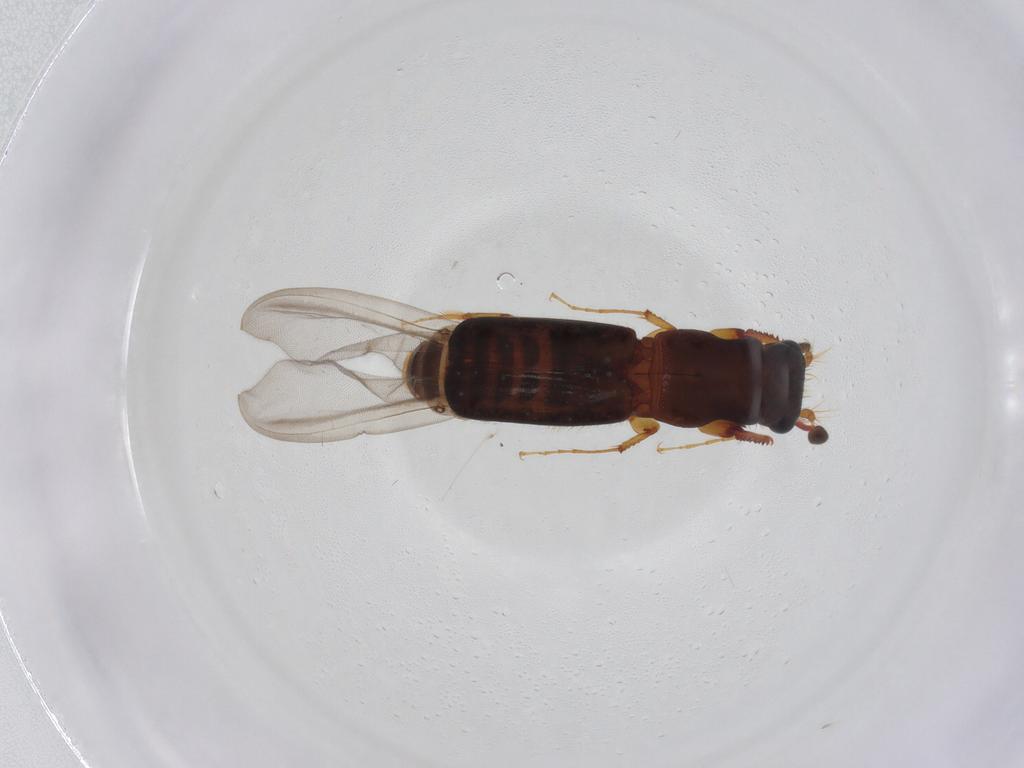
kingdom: Animalia
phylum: Arthropoda
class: Insecta
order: Coleoptera
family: Curculionidae
